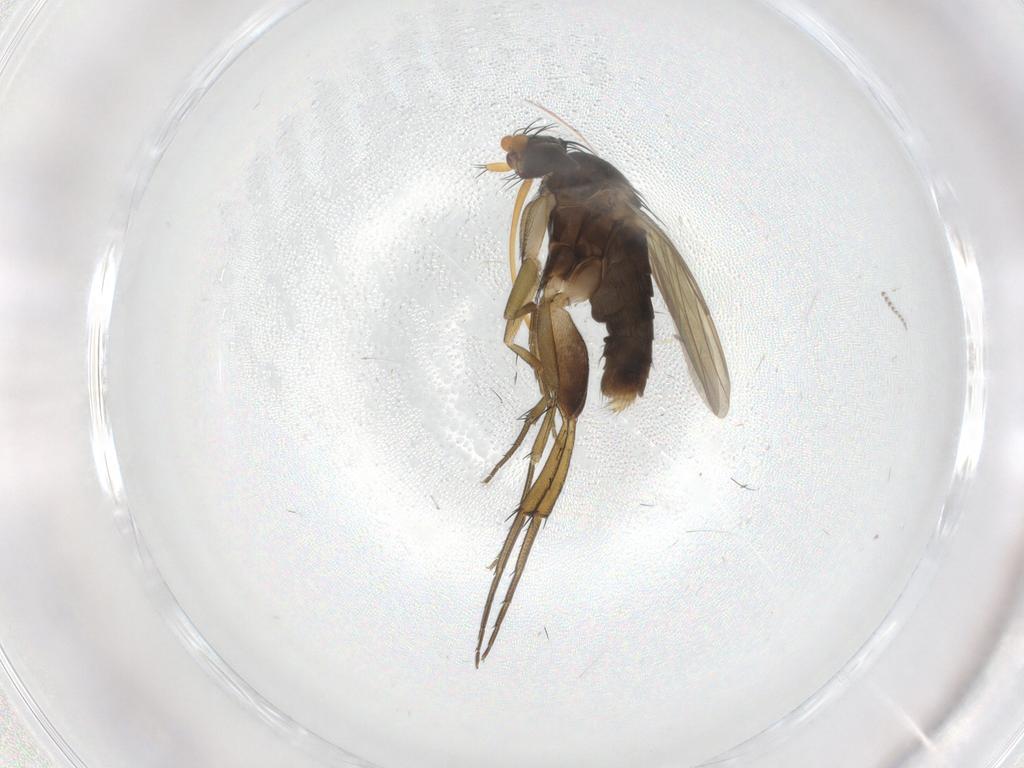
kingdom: Animalia
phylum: Arthropoda
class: Insecta
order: Diptera
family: Phoridae
